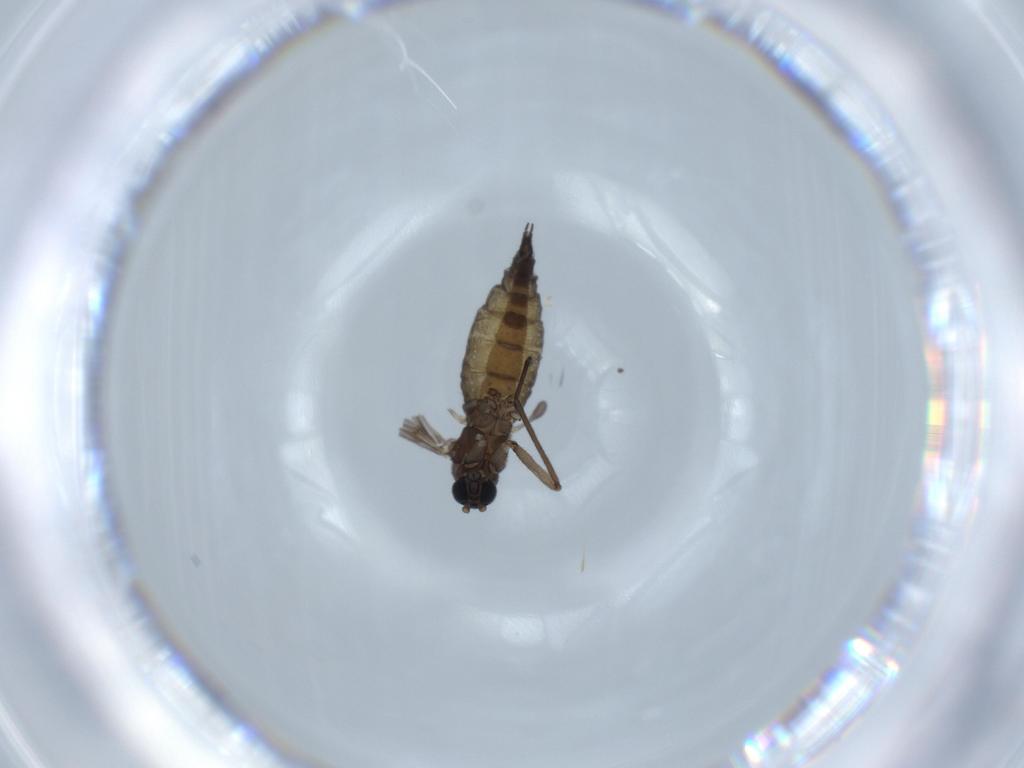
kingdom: Animalia
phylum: Arthropoda
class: Insecta
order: Diptera
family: Sciaridae
